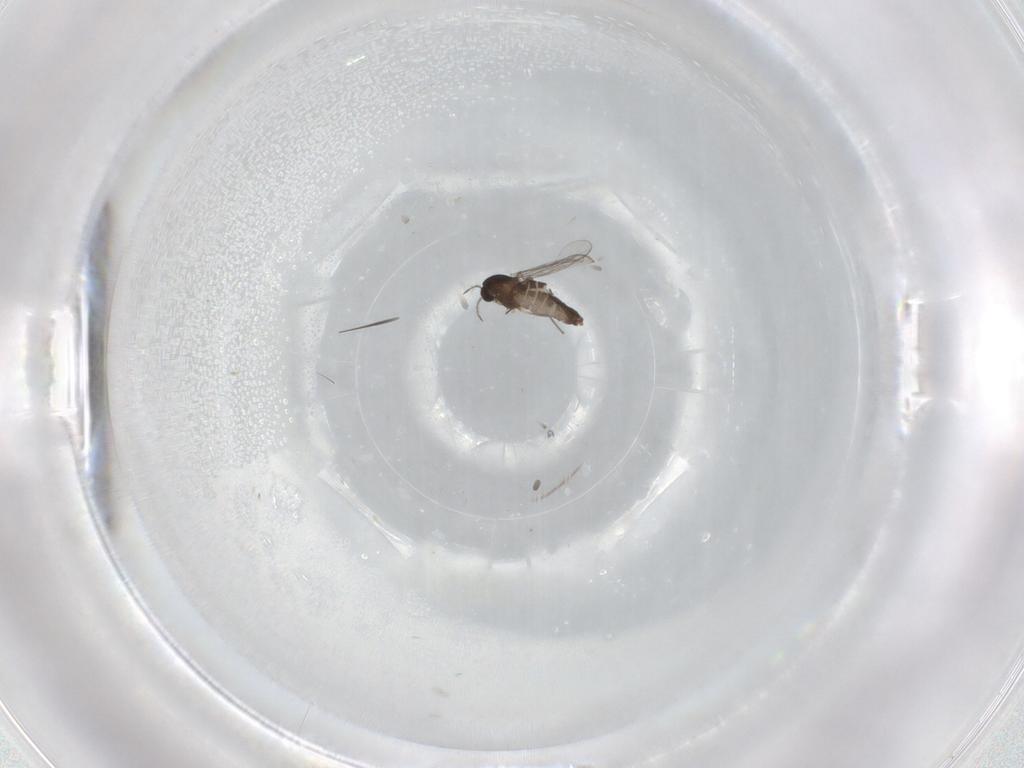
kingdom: Animalia
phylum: Arthropoda
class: Insecta
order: Diptera
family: Chironomidae
